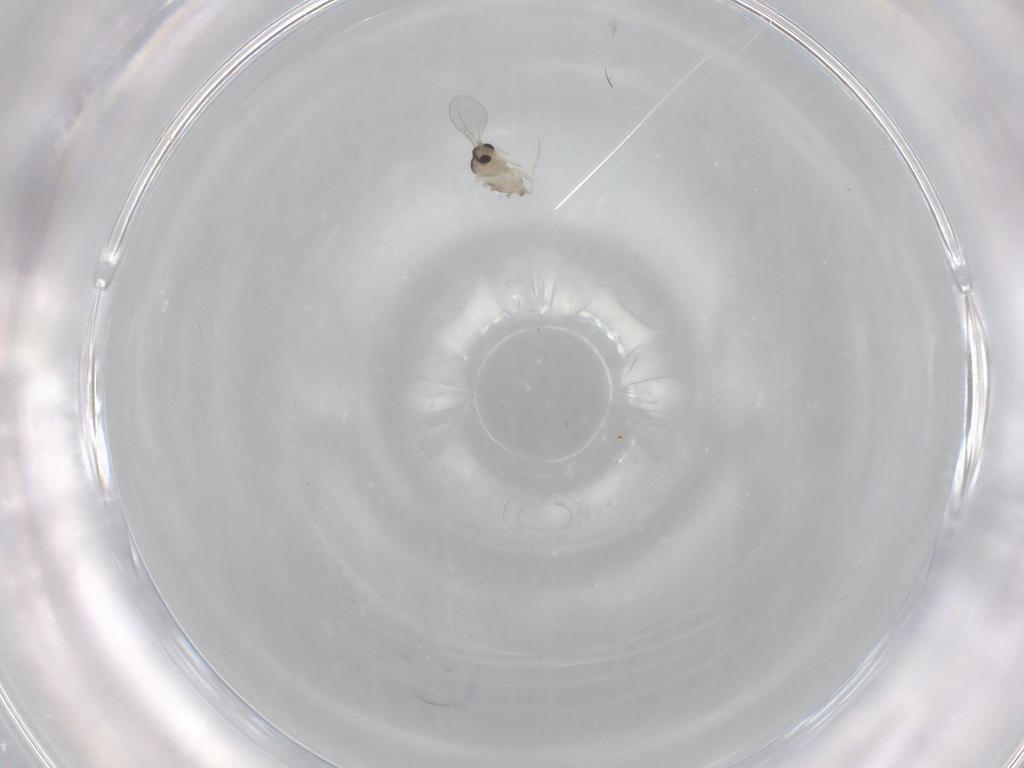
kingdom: Animalia
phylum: Arthropoda
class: Insecta
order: Diptera
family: Cecidomyiidae
